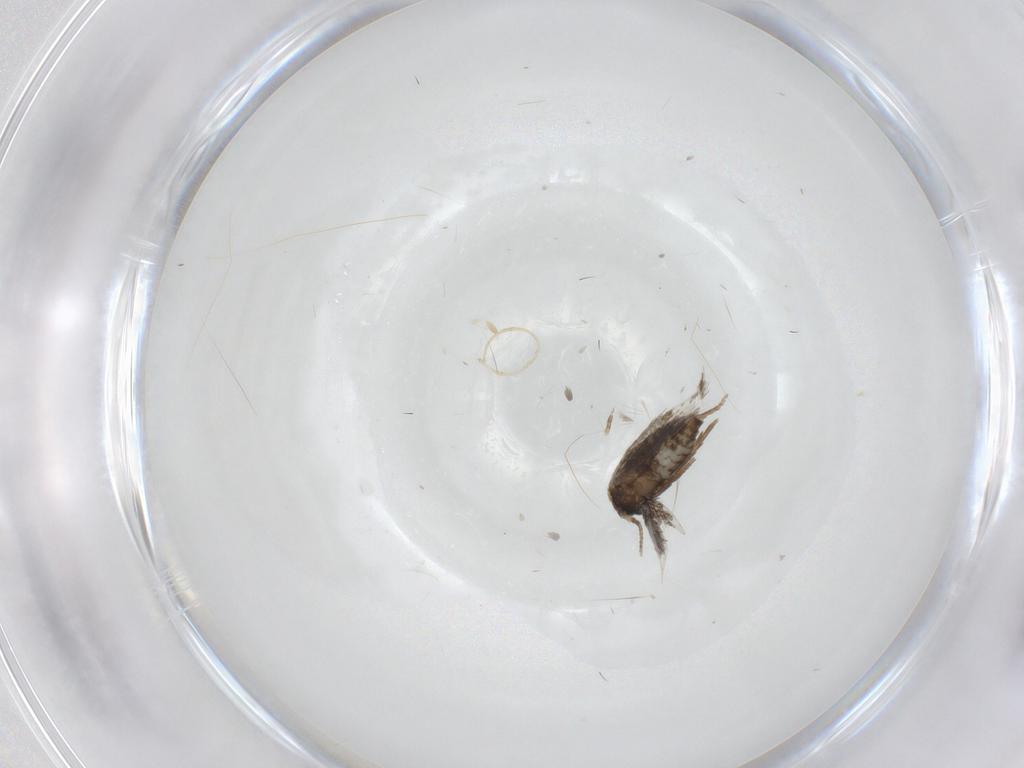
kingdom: Animalia
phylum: Arthropoda
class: Insecta
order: Lepidoptera
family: Nepticulidae
